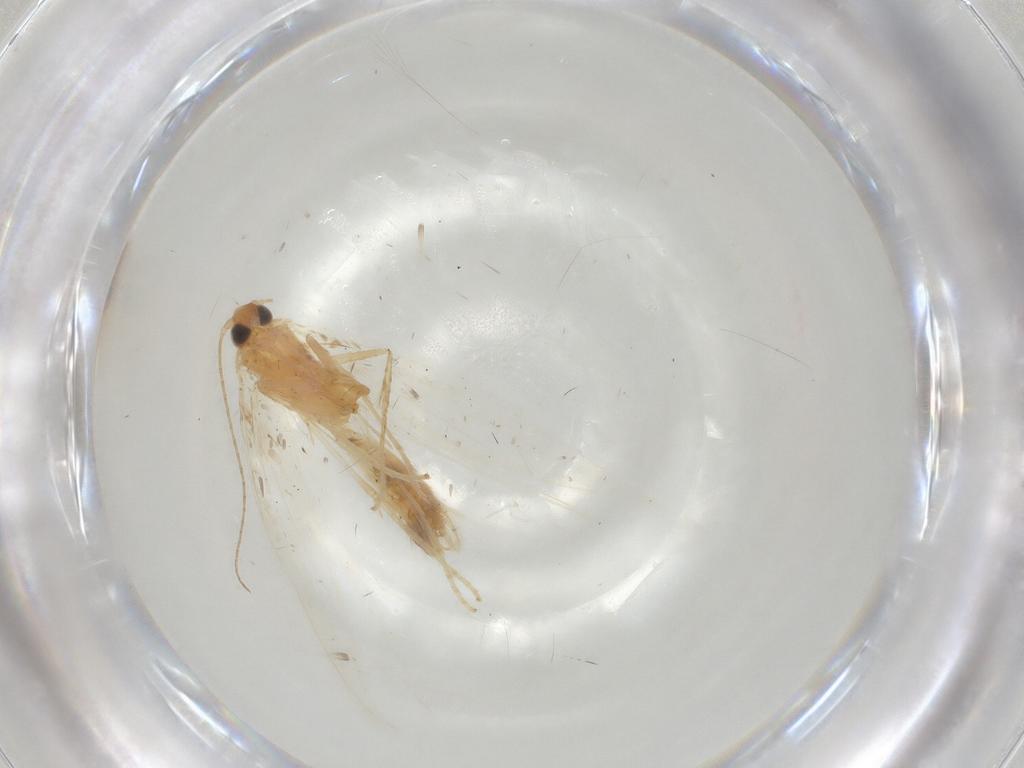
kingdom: Animalia
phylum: Arthropoda
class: Insecta
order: Lepidoptera
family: Tischeriidae
